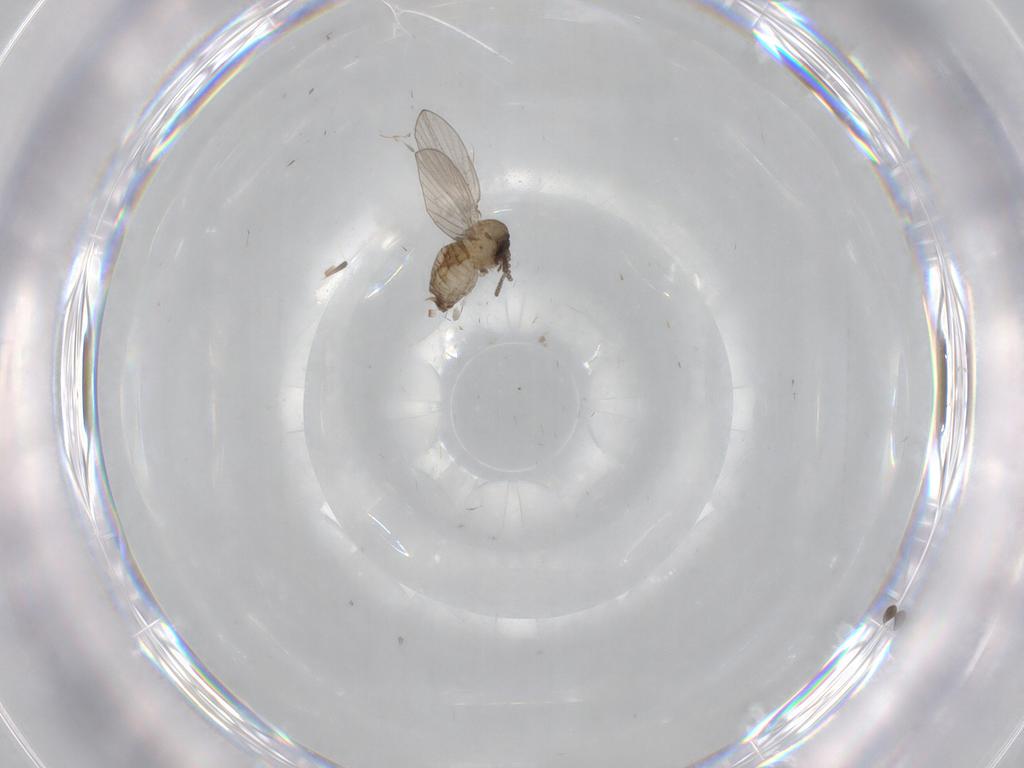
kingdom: Animalia
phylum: Arthropoda
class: Insecta
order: Diptera
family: Psychodidae
